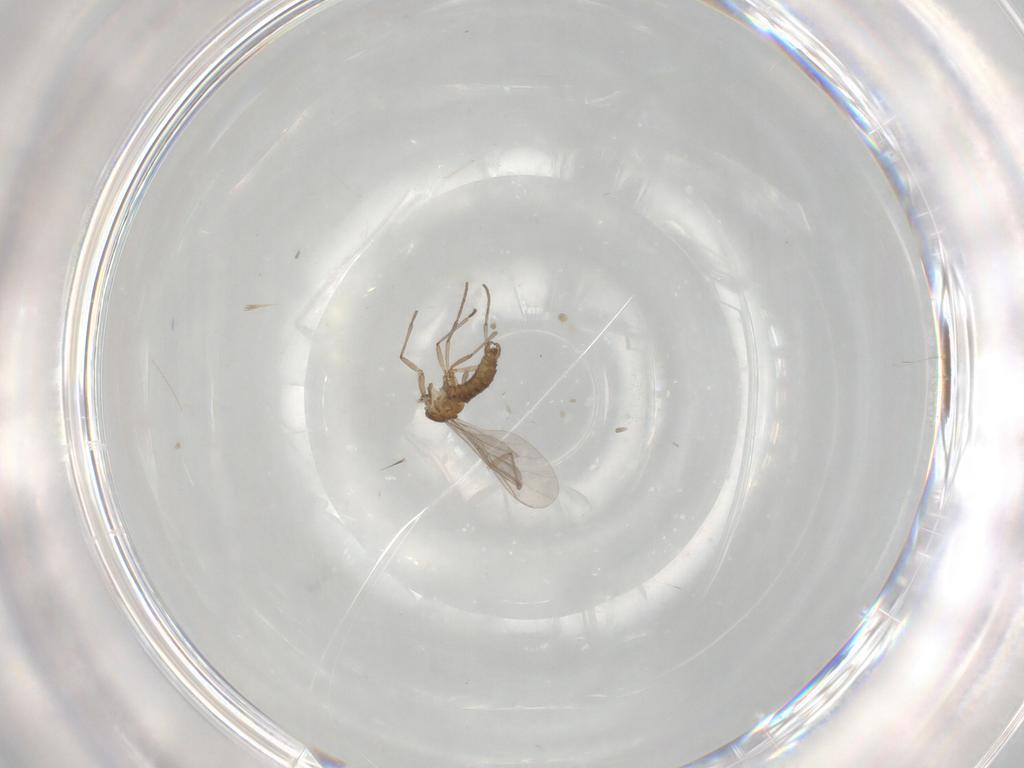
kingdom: Animalia
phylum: Arthropoda
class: Insecta
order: Diptera
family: Sciaridae
